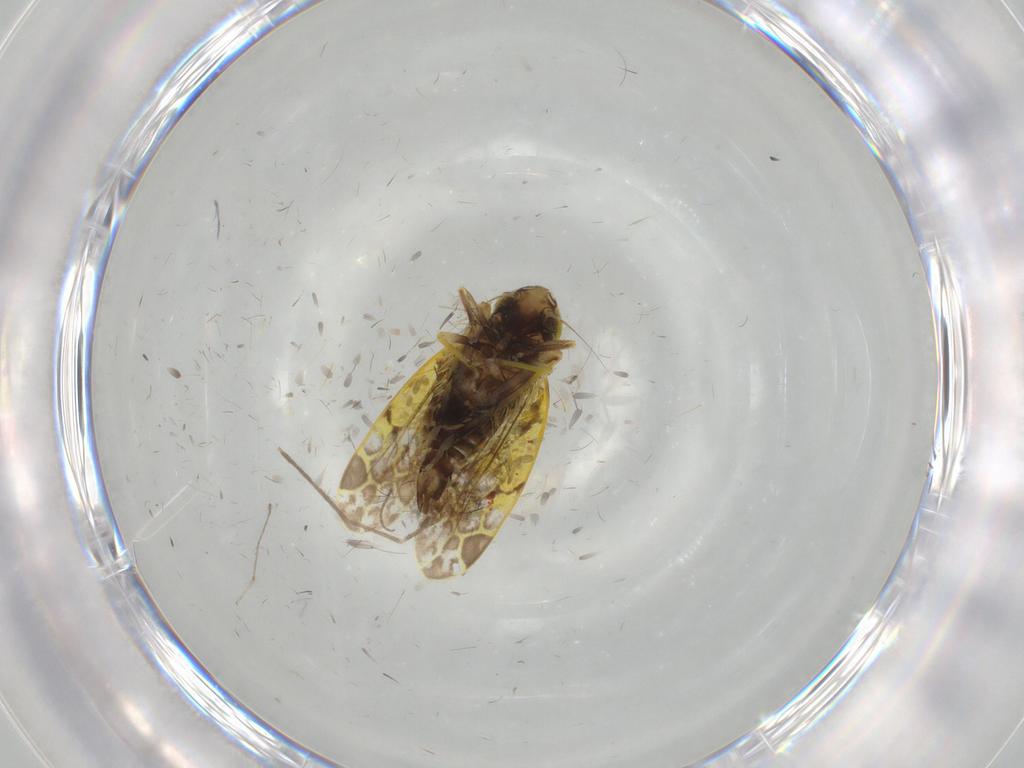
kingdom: Animalia
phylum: Arthropoda
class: Insecta
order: Hemiptera
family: Cicadellidae
